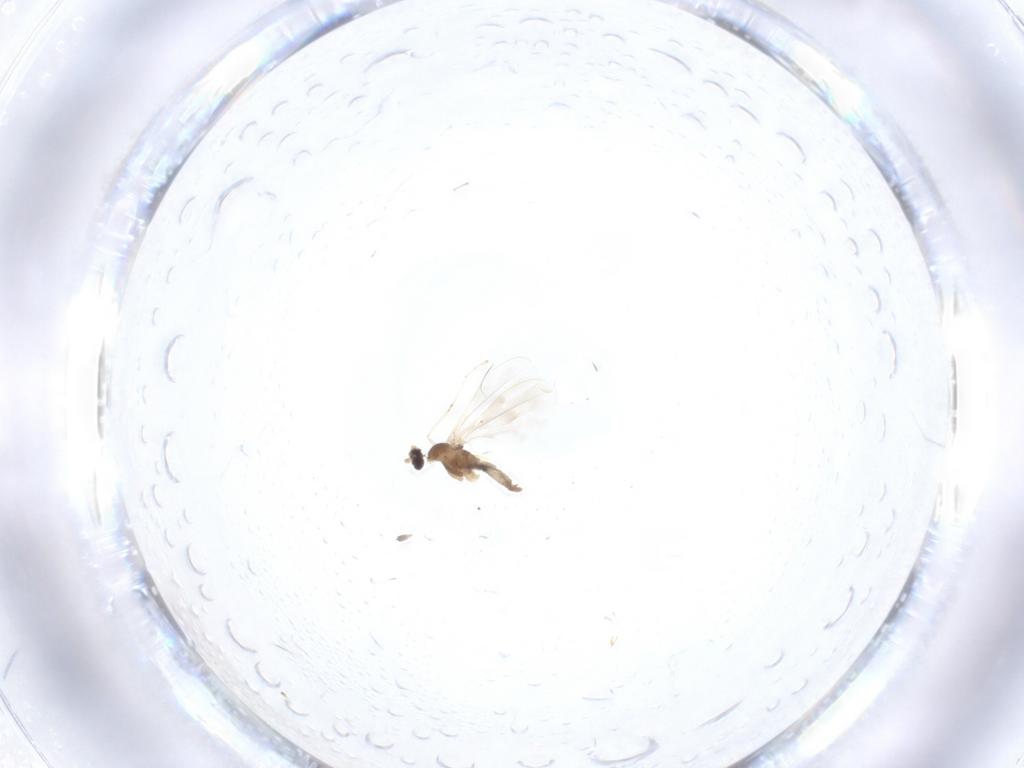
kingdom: Animalia
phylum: Arthropoda
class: Insecta
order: Diptera
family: Cecidomyiidae
